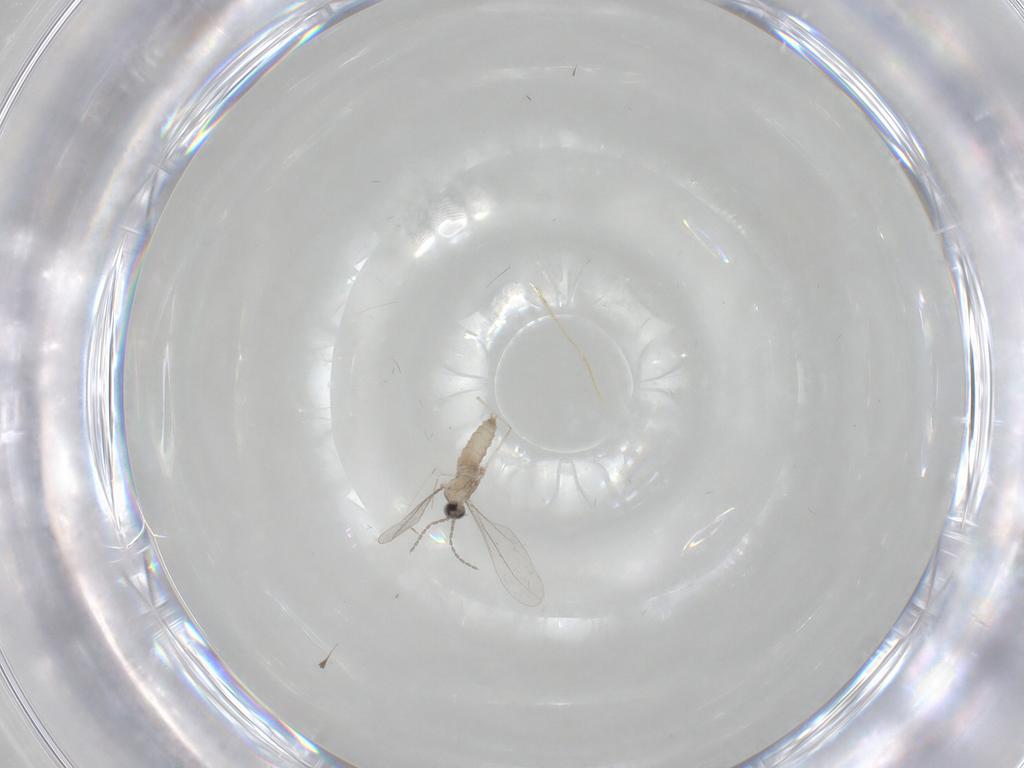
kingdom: Animalia
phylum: Arthropoda
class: Insecta
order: Diptera
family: Cecidomyiidae
